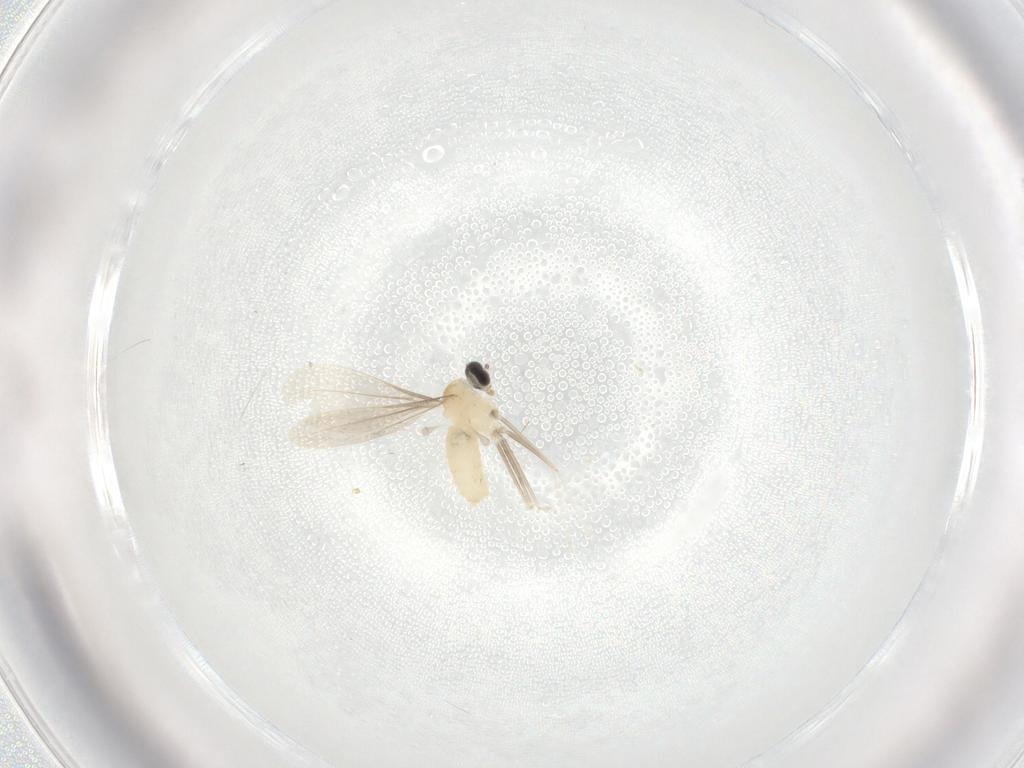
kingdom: Animalia
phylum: Arthropoda
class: Insecta
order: Diptera
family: Cecidomyiidae
